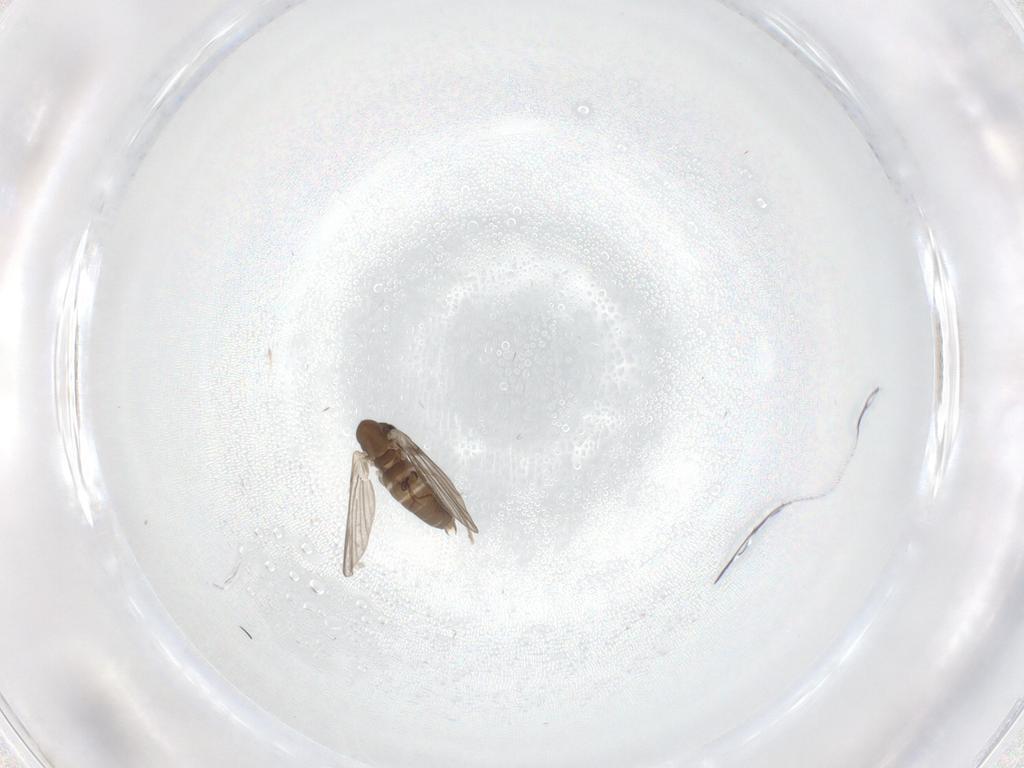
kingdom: Animalia
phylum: Arthropoda
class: Insecta
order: Diptera
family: Ceratopogonidae
